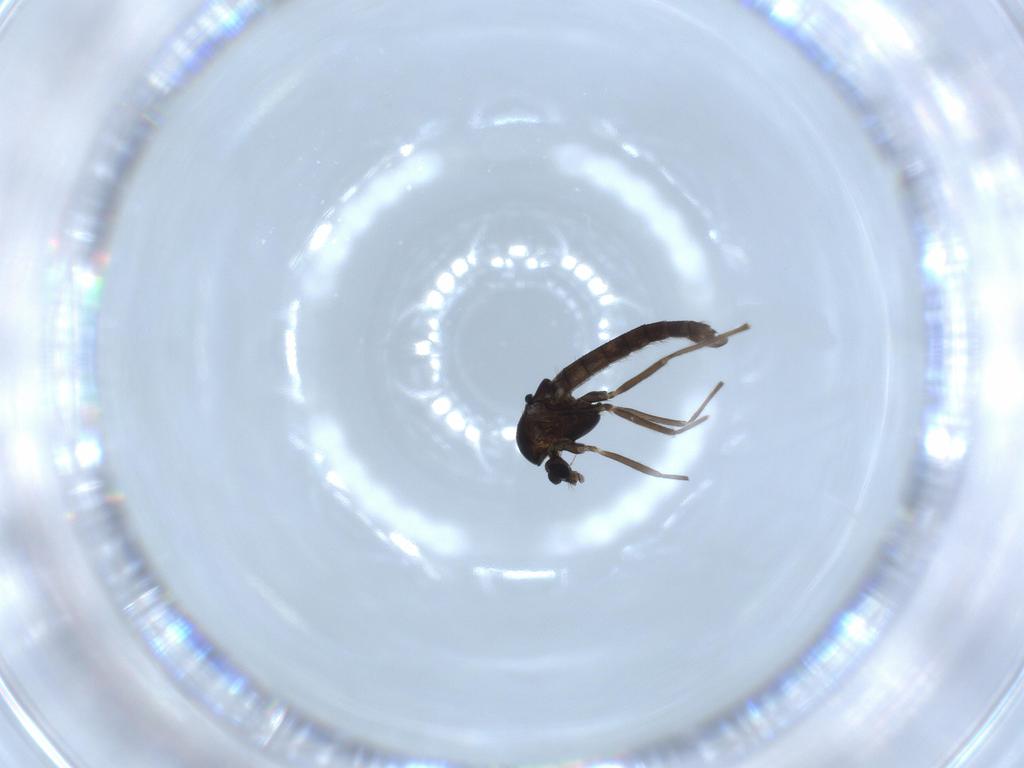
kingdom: Animalia
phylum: Arthropoda
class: Insecta
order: Diptera
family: Chironomidae
